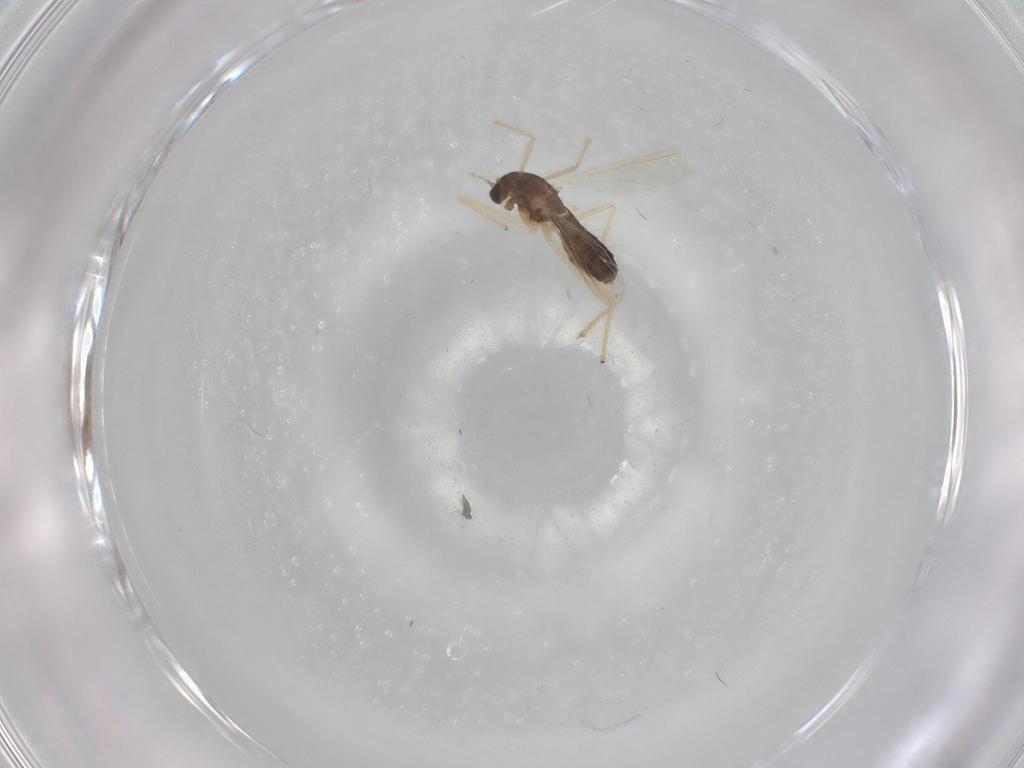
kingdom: Animalia
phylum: Arthropoda
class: Insecta
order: Diptera
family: Chironomidae
